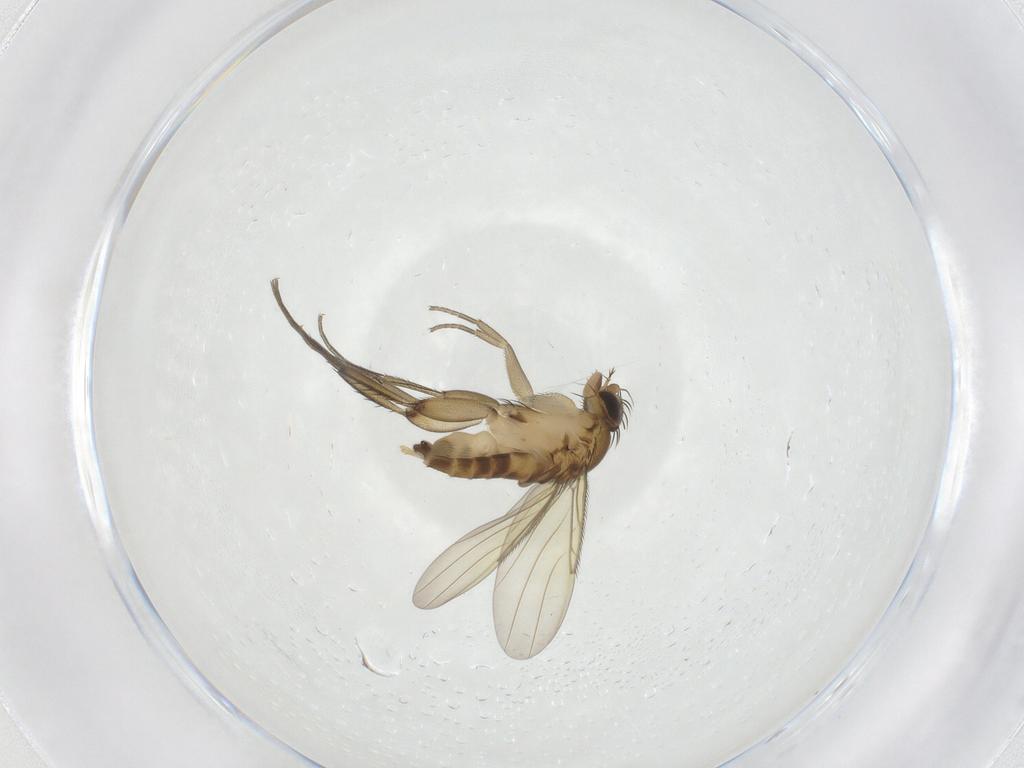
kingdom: Animalia
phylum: Arthropoda
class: Insecta
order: Diptera
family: Phoridae
